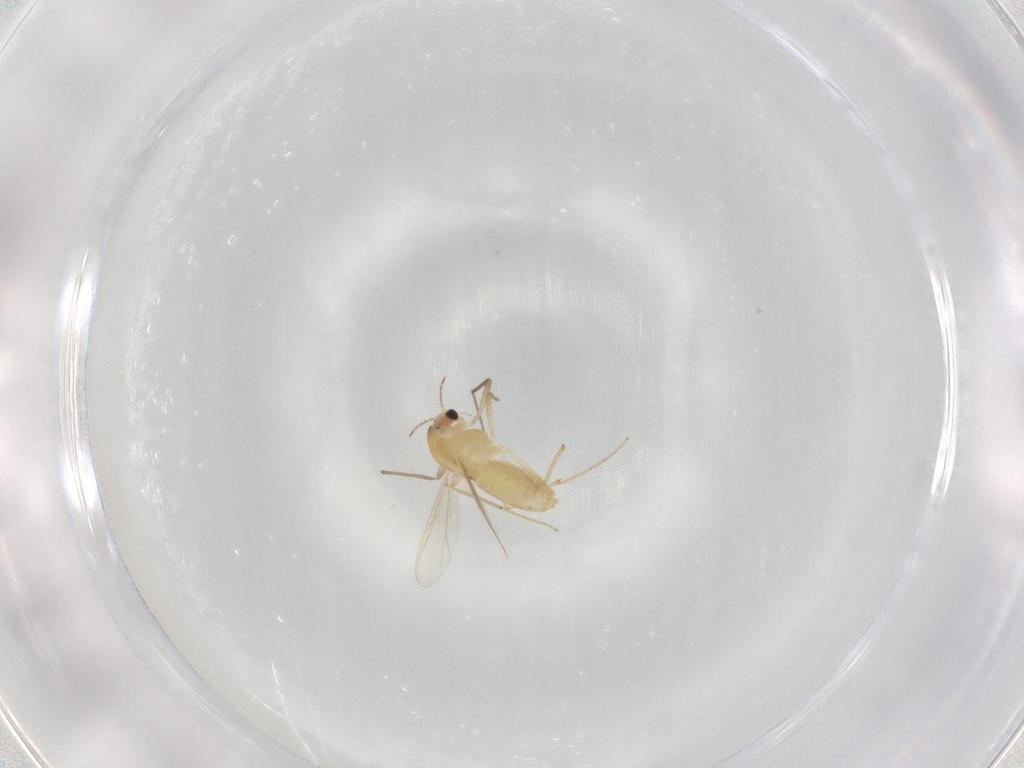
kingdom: Animalia
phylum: Arthropoda
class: Insecta
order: Diptera
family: Chironomidae
